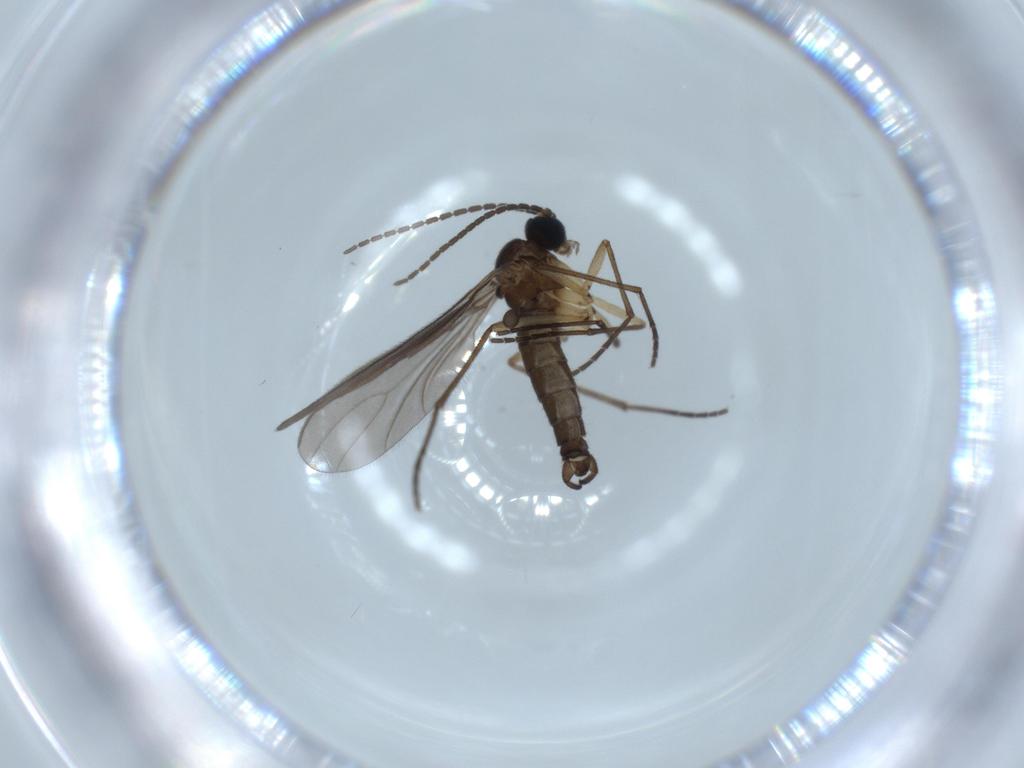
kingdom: Animalia
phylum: Arthropoda
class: Insecta
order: Diptera
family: Sciaridae
